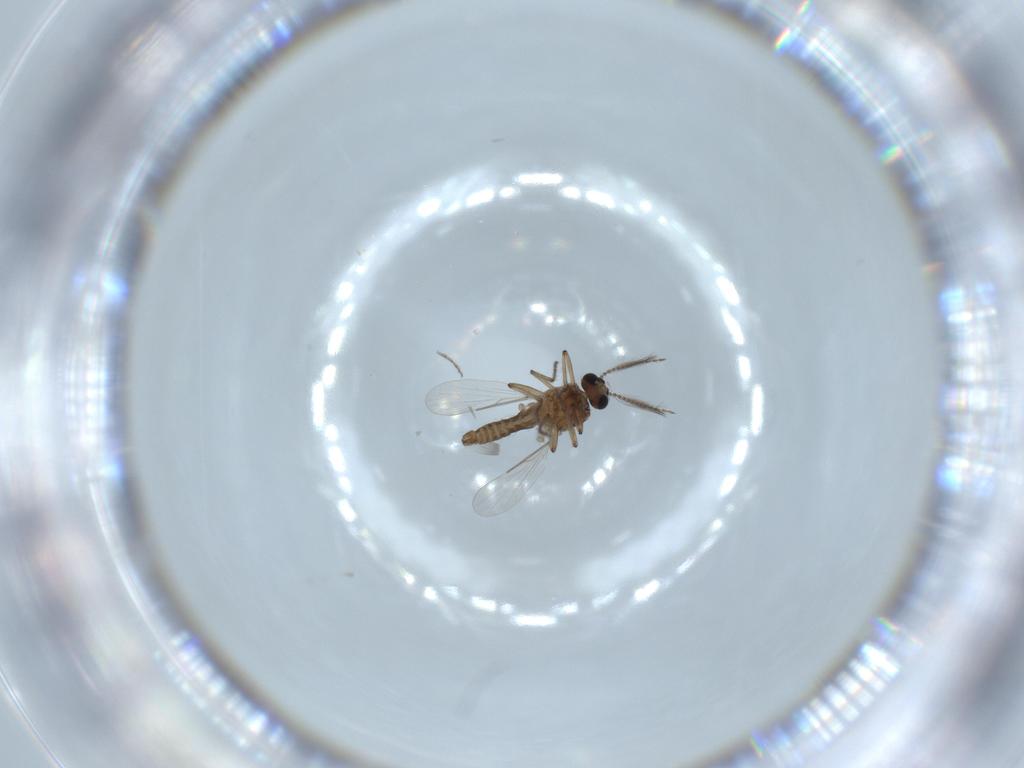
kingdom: Animalia
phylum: Arthropoda
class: Insecta
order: Diptera
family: Ceratopogonidae
